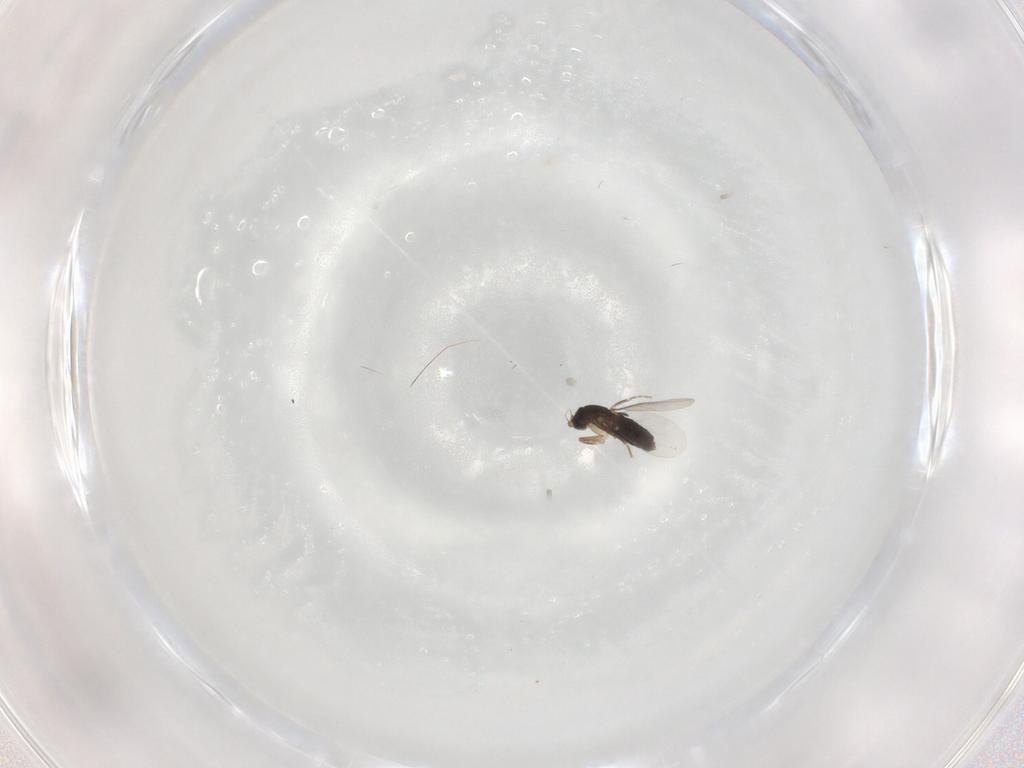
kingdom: Animalia
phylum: Arthropoda
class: Insecta
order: Diptera
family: Phoridae
